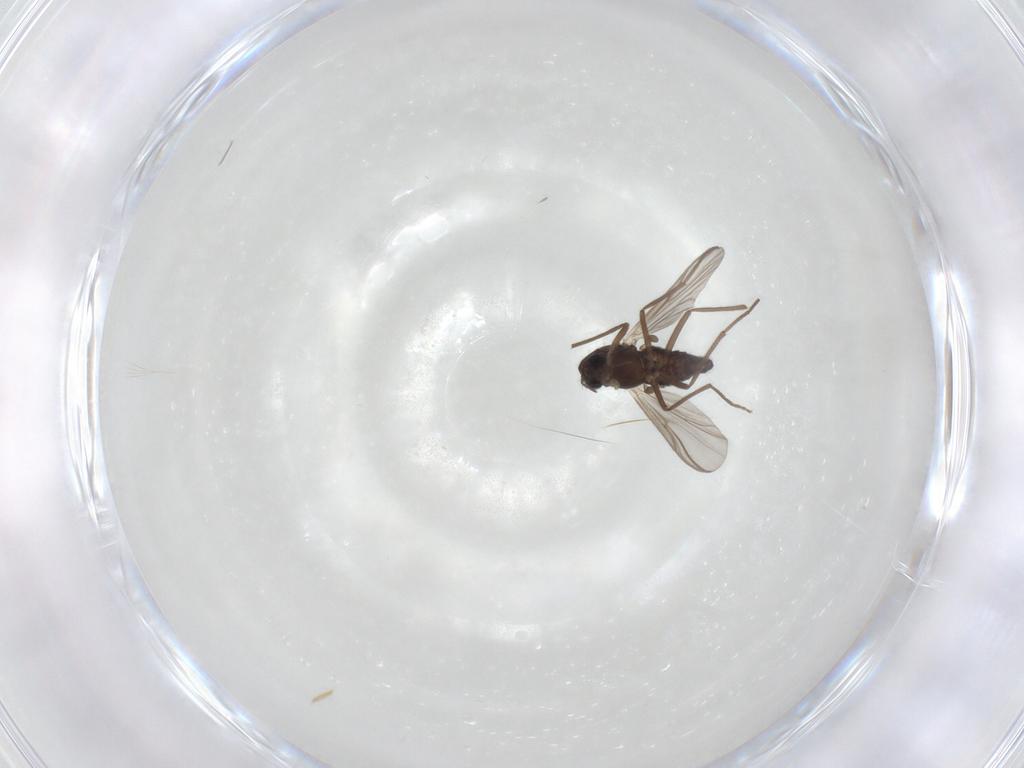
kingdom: Animalia
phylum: Arthropoda
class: Insecta
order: Diptera
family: Chironomidae
